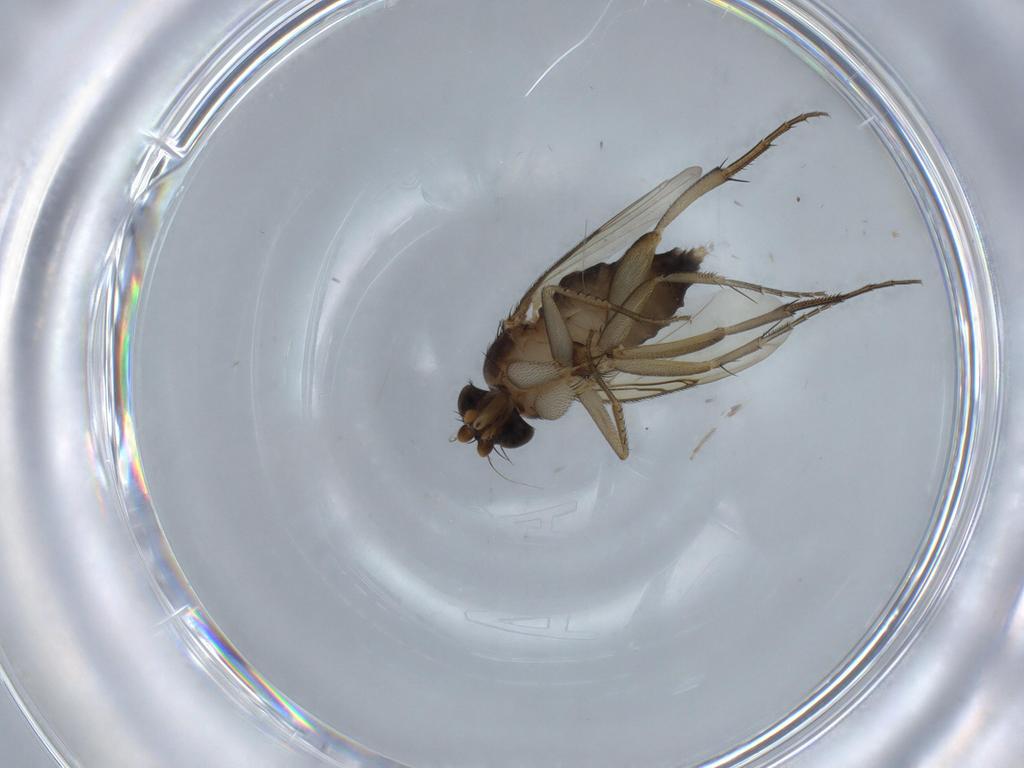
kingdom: Animalia
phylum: Arthropoda
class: Insecta
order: Diptera
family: Phoridae
